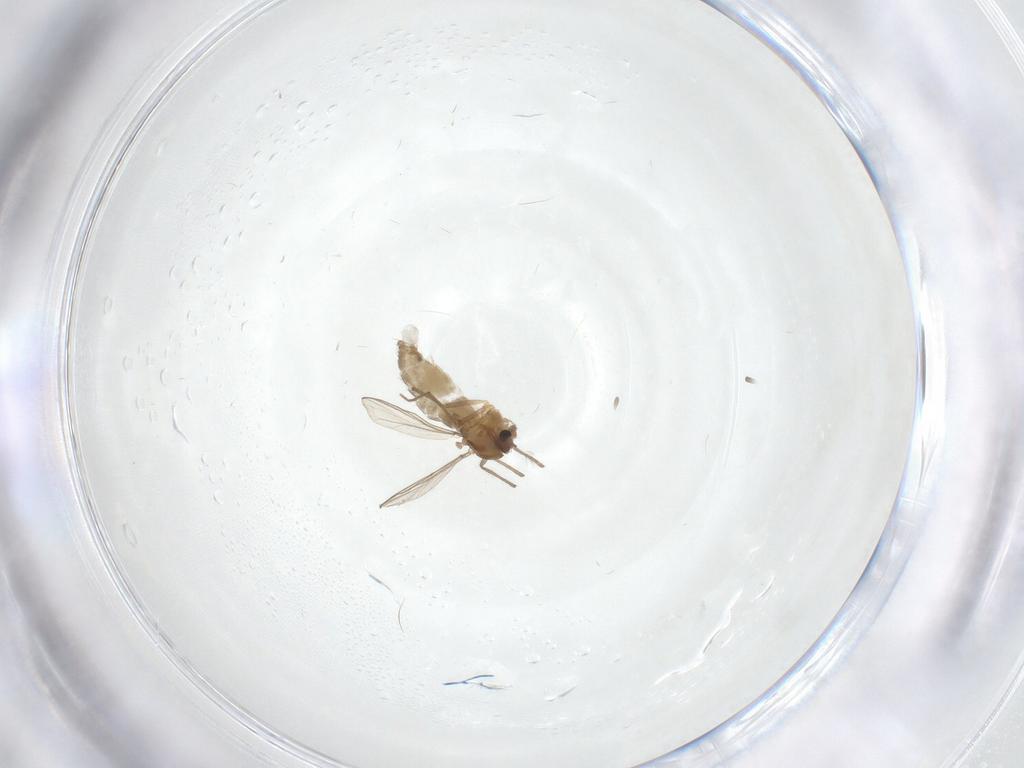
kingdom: Animalia
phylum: Arthropoda
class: Insecta
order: Diptera
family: Chironomidae
